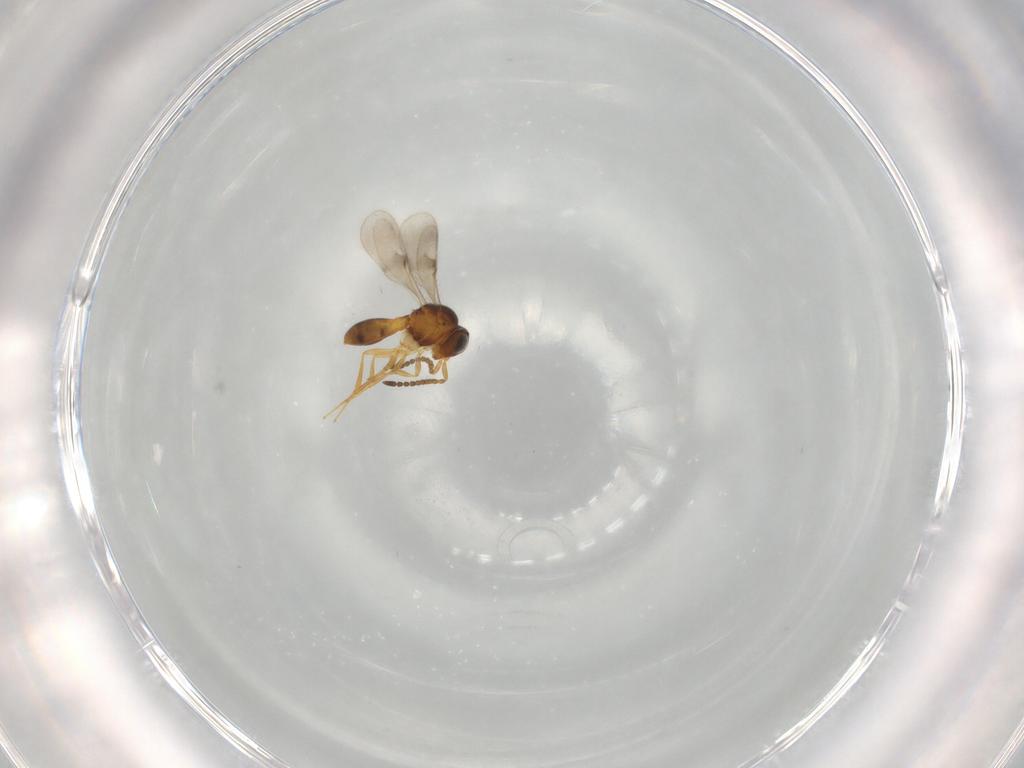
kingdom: Animalia
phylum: Arthropoda
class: Insecta
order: Hymenoptera
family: Scelionidae
